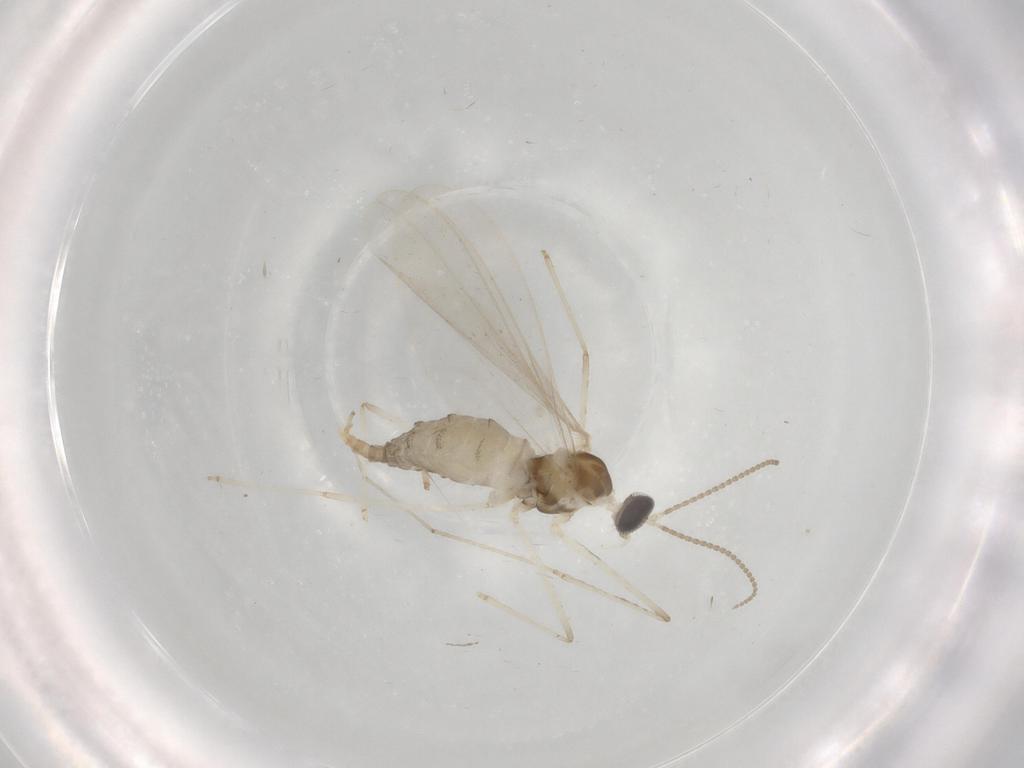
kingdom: Animalia
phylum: Arthropoda
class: Insecta
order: Diptera
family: Cecidomyiidae
